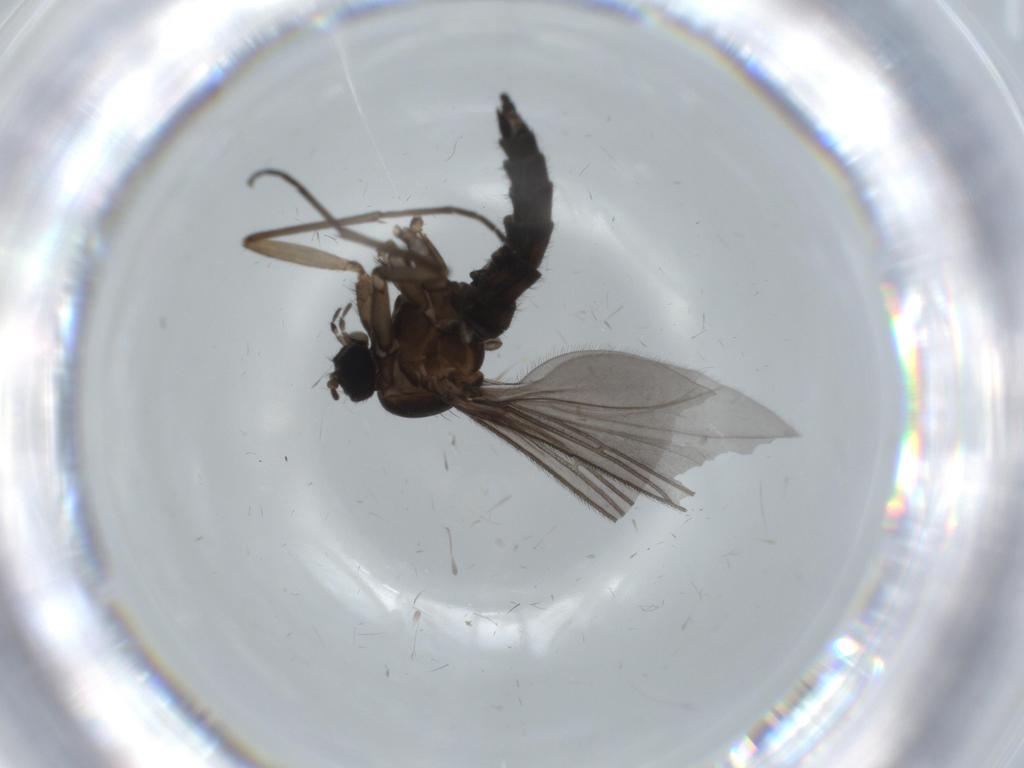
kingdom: Animalia
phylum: Arthropoda
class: Insecta
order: Diptera
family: Sciaridae
